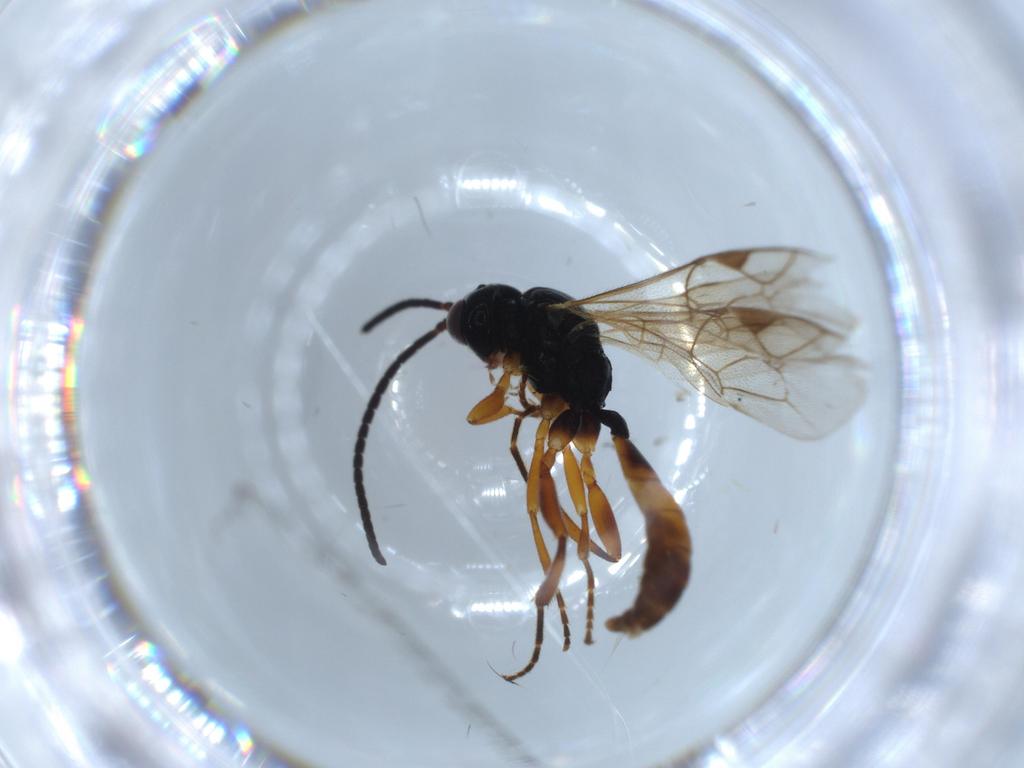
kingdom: Animalia
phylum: Arthropoda
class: Insecta
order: Hymenoptera
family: Ichneumonidae
